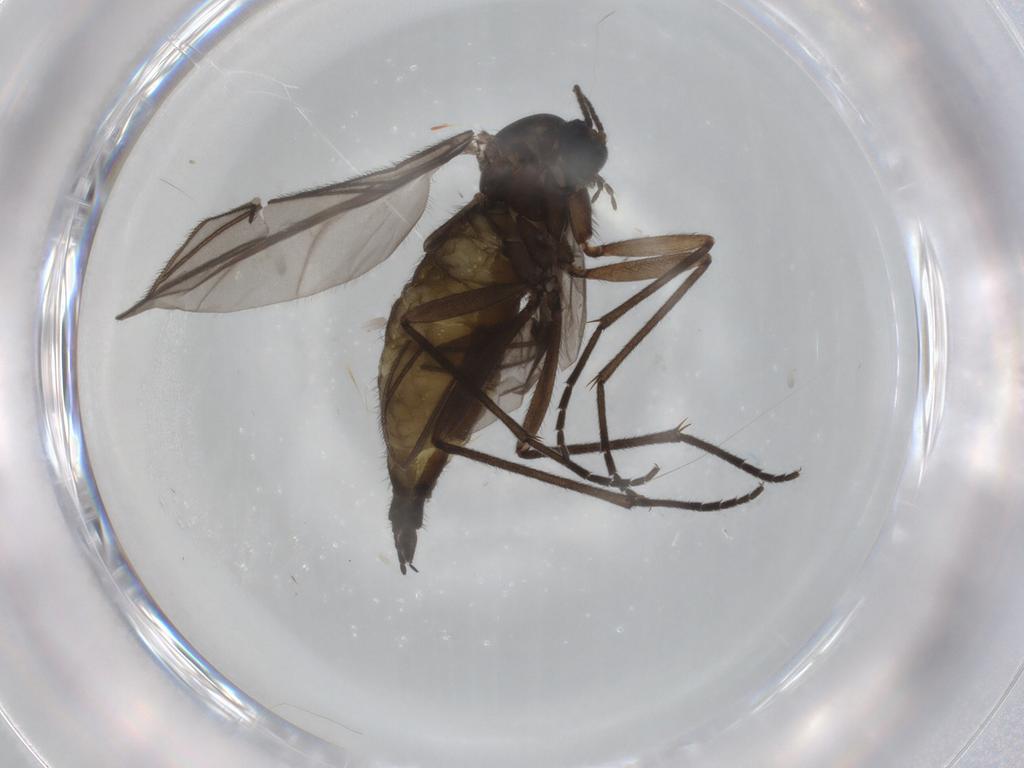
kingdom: Animalia
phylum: Arthropoda
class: Insecta
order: Diptera
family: Sciaridae
